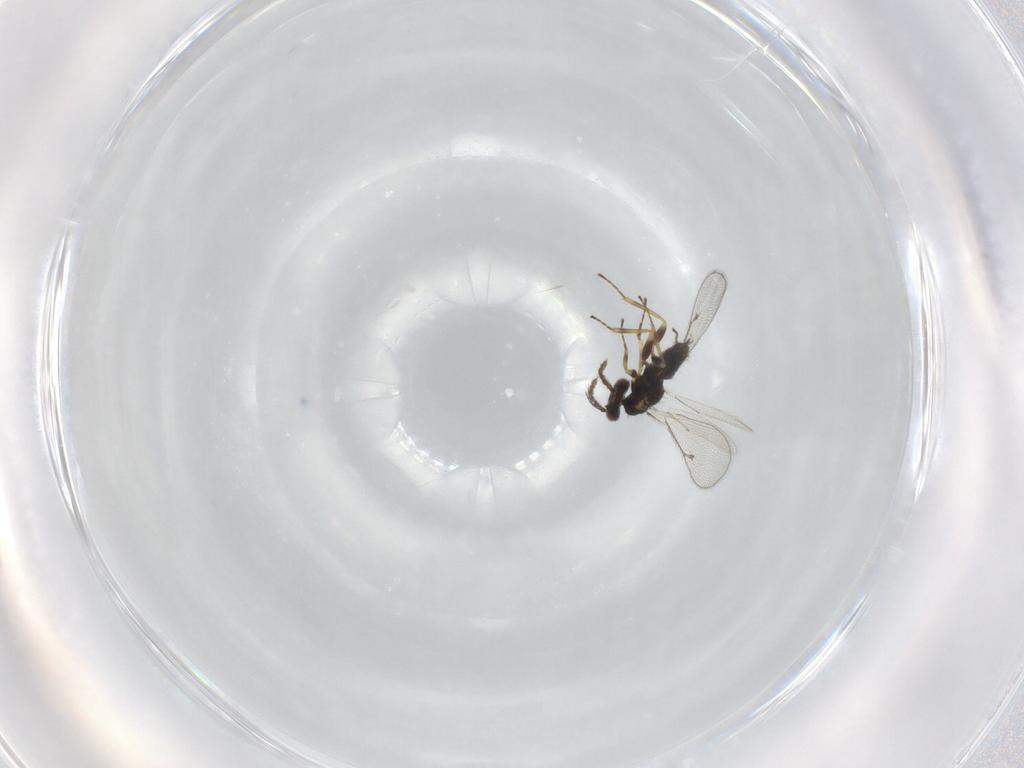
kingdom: Animalia
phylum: Arthropoda
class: Insecta
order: Hymenoptera
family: Eulophidae
